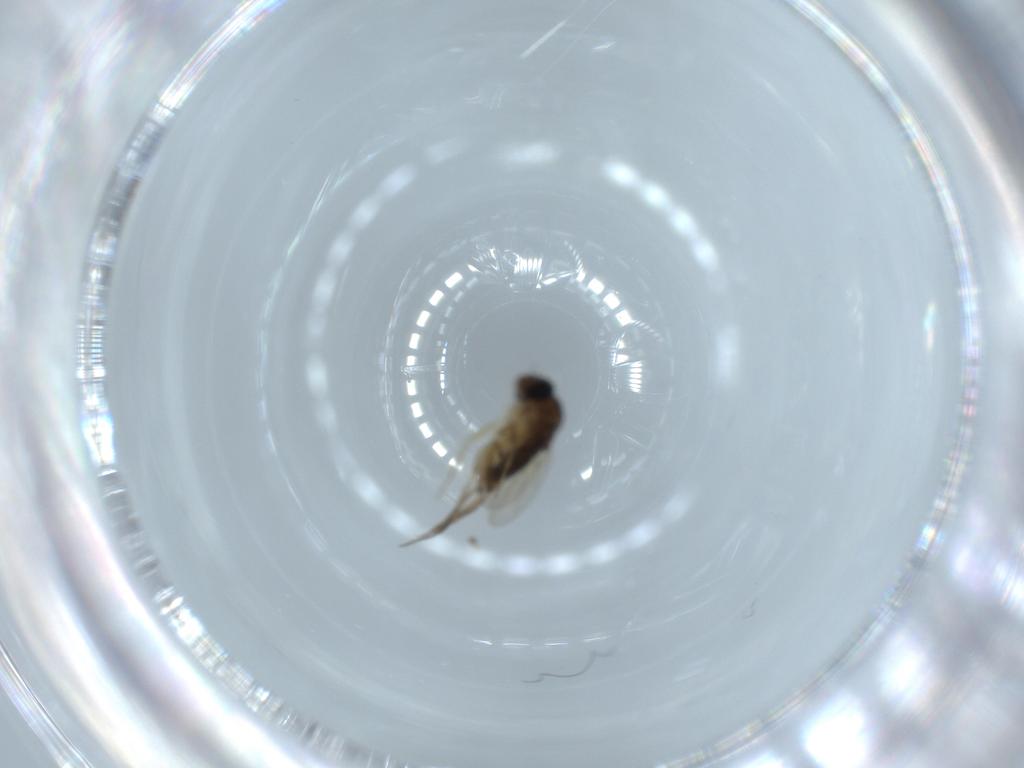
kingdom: Animalia
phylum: Arthropoda
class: Insecta
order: Diptera
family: Phoridae
